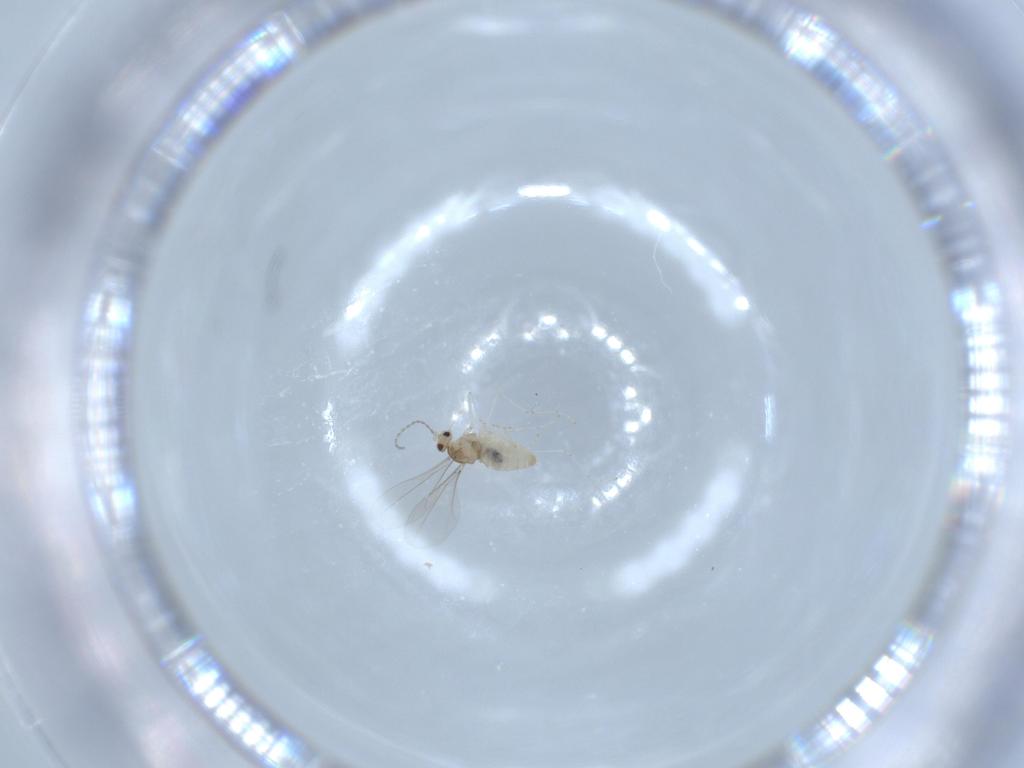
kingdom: Animalia
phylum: Arthropoda
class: Insecta
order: Diptera
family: Cecidomyiidae
